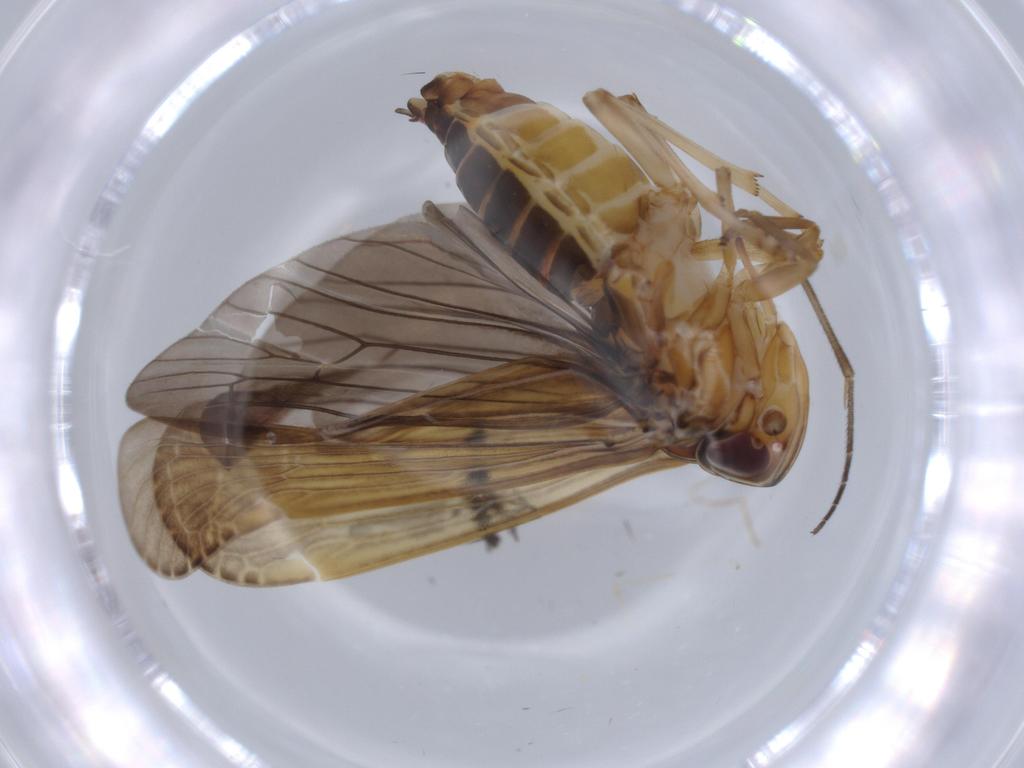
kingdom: Animalia
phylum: Arthropoda
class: Insecta
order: Hemiptera
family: Achilidae
